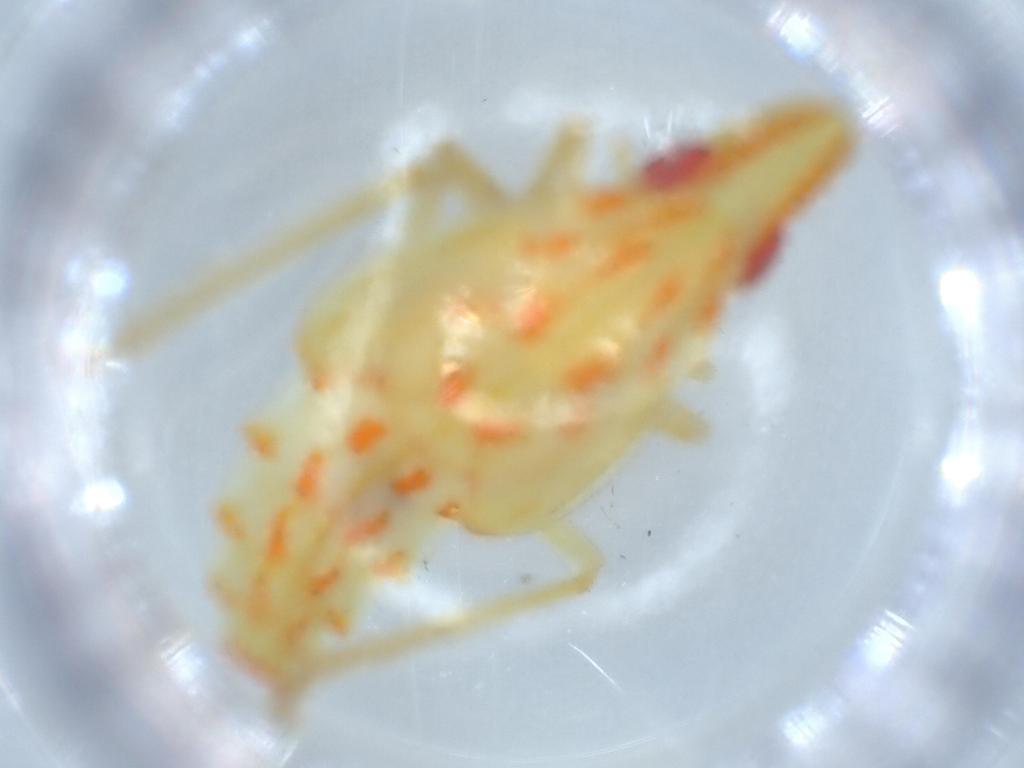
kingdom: Animalia
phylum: Arthropoda
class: Insecta
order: Hemiptera
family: Tropiduchidae
